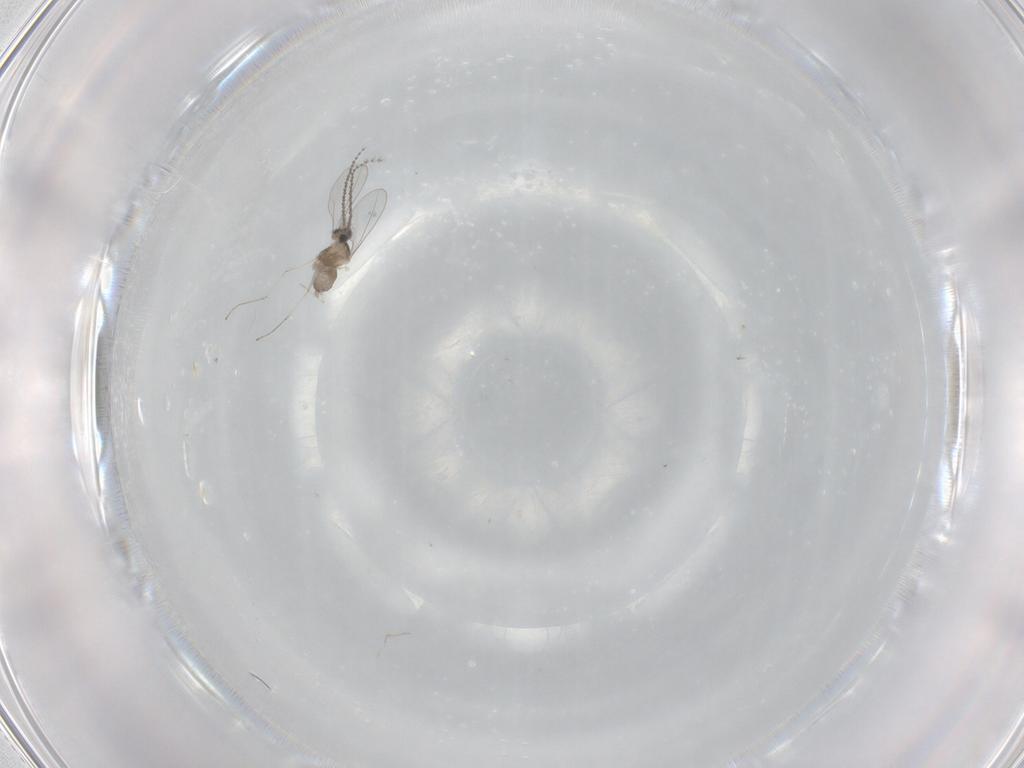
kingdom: Animalia
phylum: Arthropoda
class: Insecta
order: Diptera
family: Cecidomyiidae
